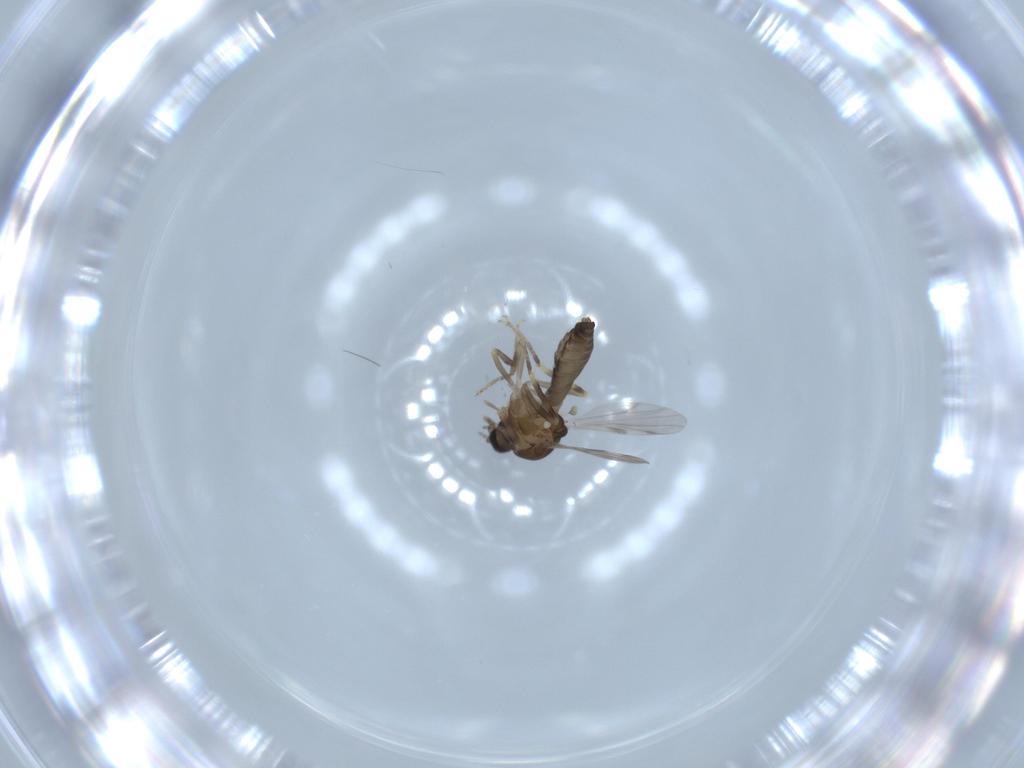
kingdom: Animalia
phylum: Arthropoda
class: Insecta
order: Diptera
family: Ceratopogonidae
